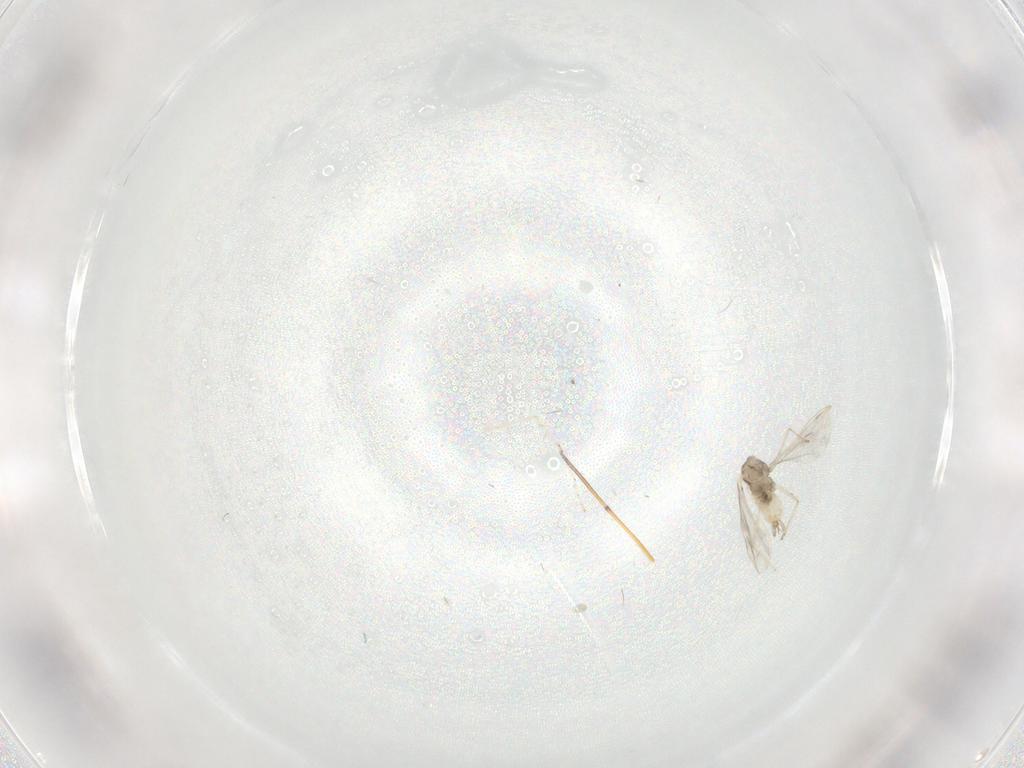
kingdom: Animalia
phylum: Arthropoda
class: Insecta
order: Diptera
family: Cecidomyiidae
